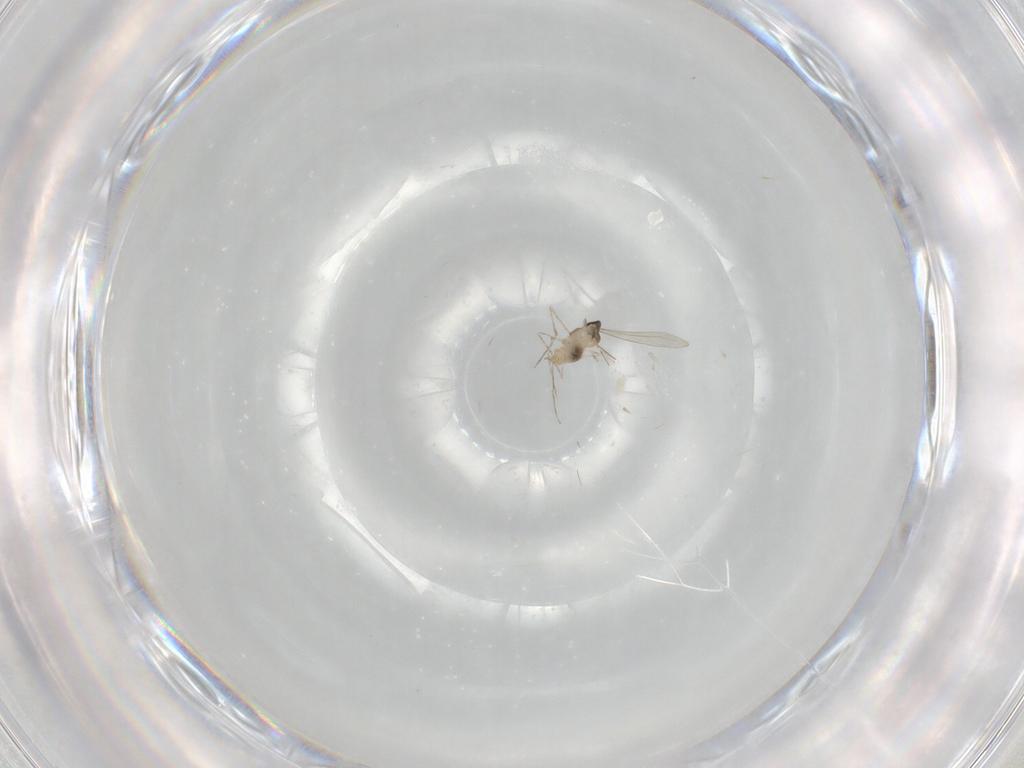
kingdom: Animalia
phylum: Arthropoda
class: Insecta
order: Diptera
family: Cecidomyiidae
